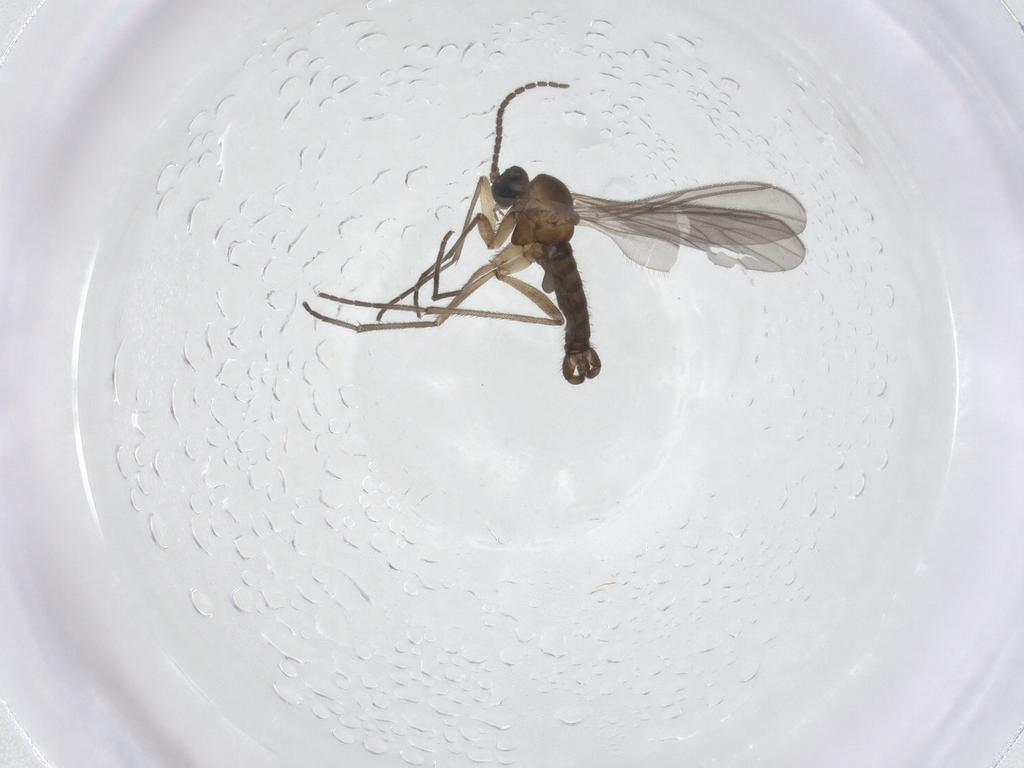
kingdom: Animalia
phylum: Arthropoda
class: Insecta
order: Diptera
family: Sciaridae
